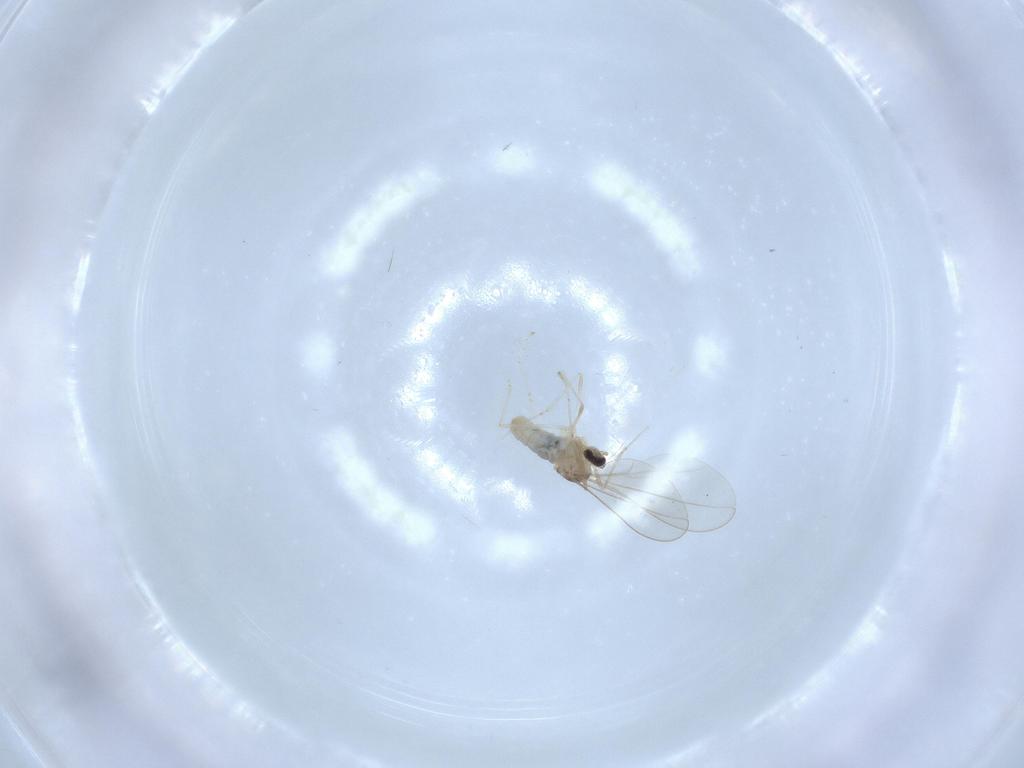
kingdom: Animalia
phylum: Arthropoda
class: Insecta
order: Diptera
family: Cecidomyiidae
